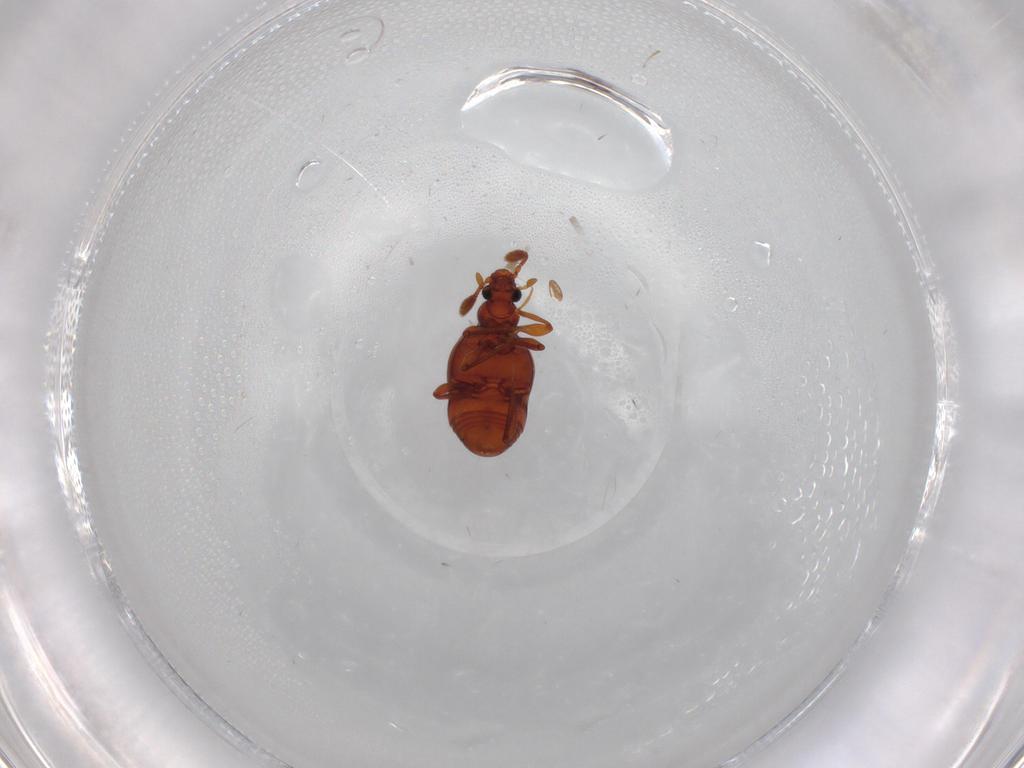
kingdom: Animalia
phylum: Arthropoda
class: Insecta
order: Coleoptera
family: Staphylinidae
